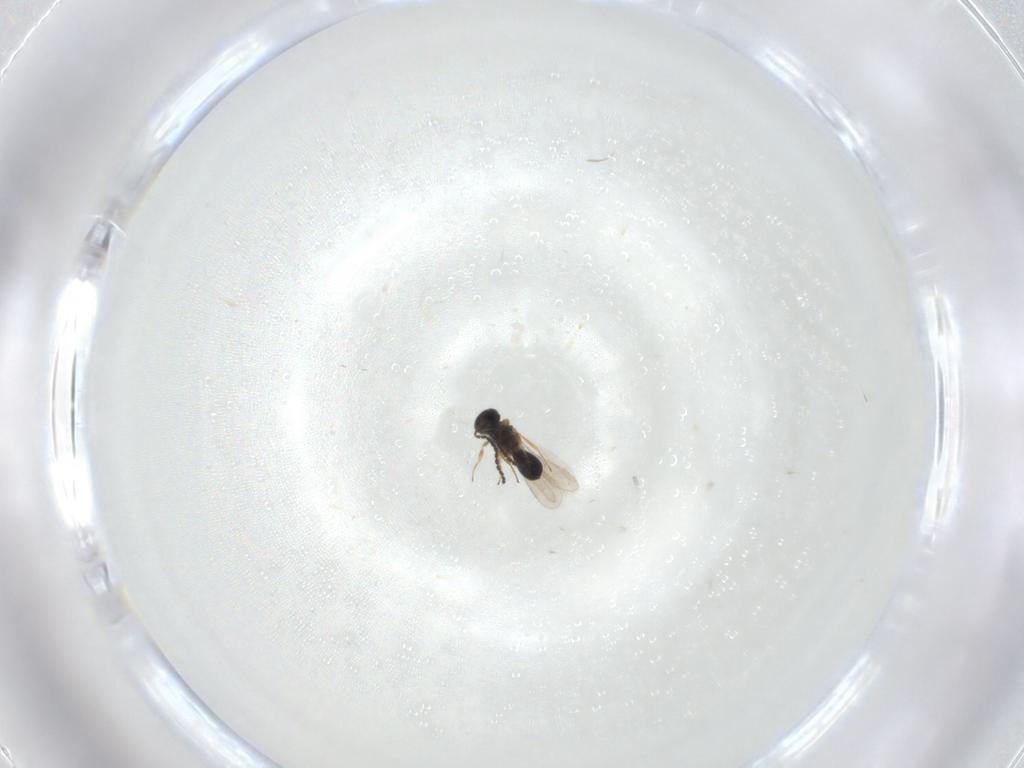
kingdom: Animalia
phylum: Arthropoda
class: Insecta
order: Hymenoptera
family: Scelionidae
